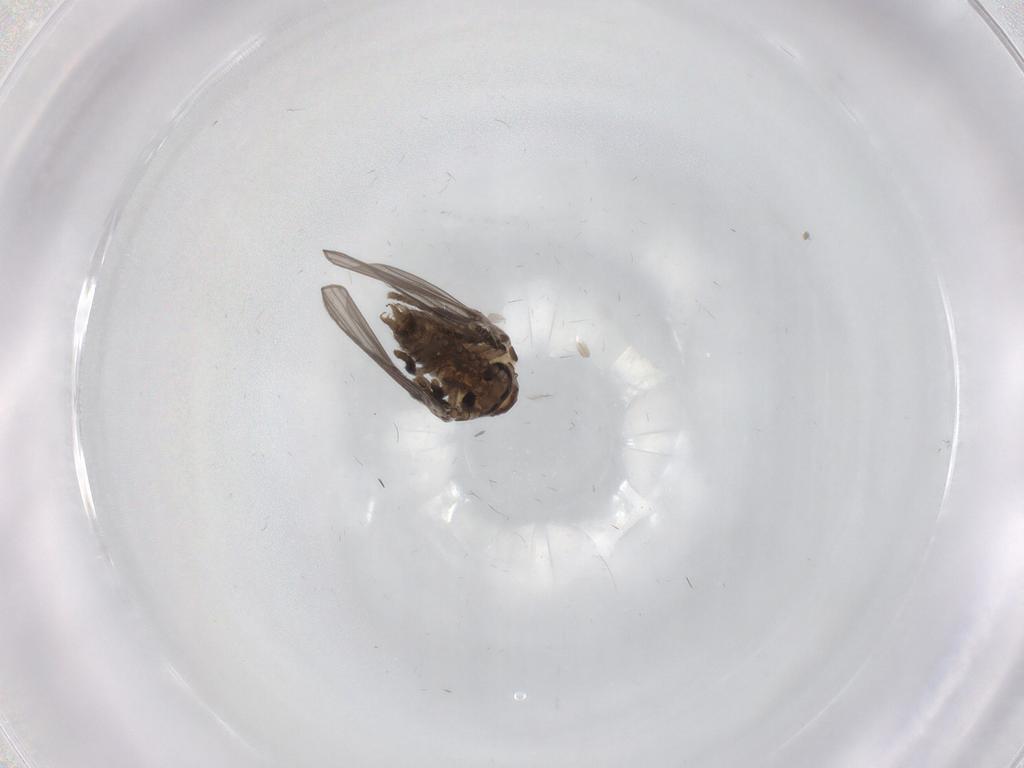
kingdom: Animalia
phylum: Arthropoda
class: Insecta
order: Diptera
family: Psychodidae
